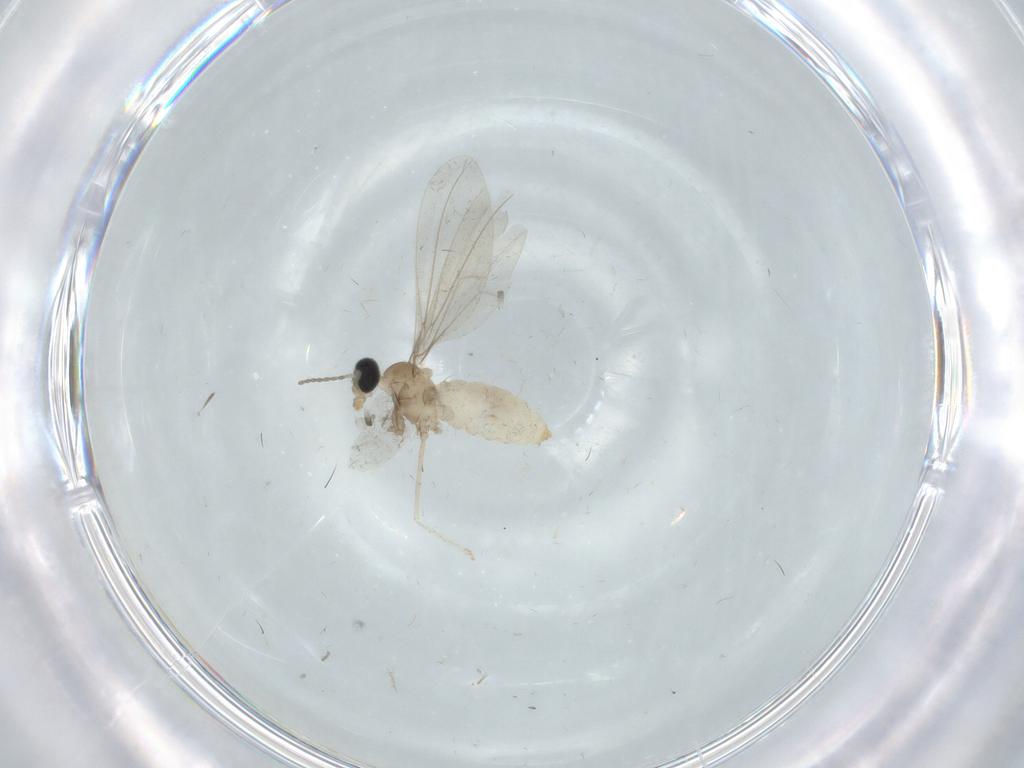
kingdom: Animalia
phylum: Arthropoda
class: Insecta
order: Diptera
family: Cecidomyiidae
